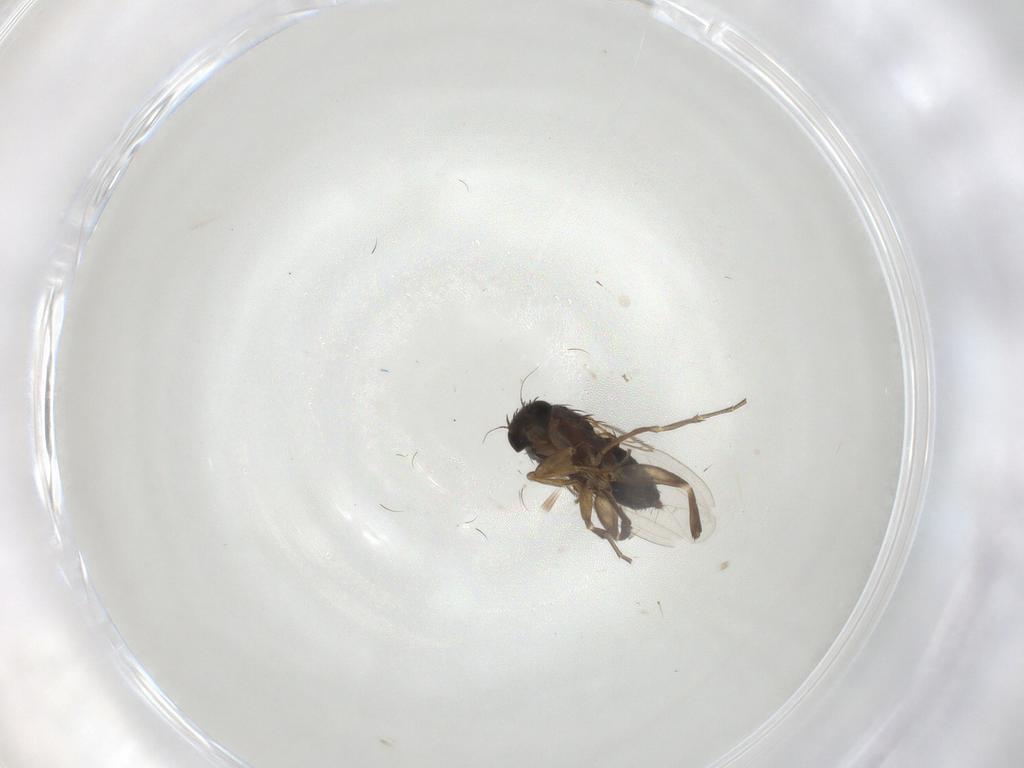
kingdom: Animalia
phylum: Arthropoda
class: Insecta
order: Diptera
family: Phoridae
